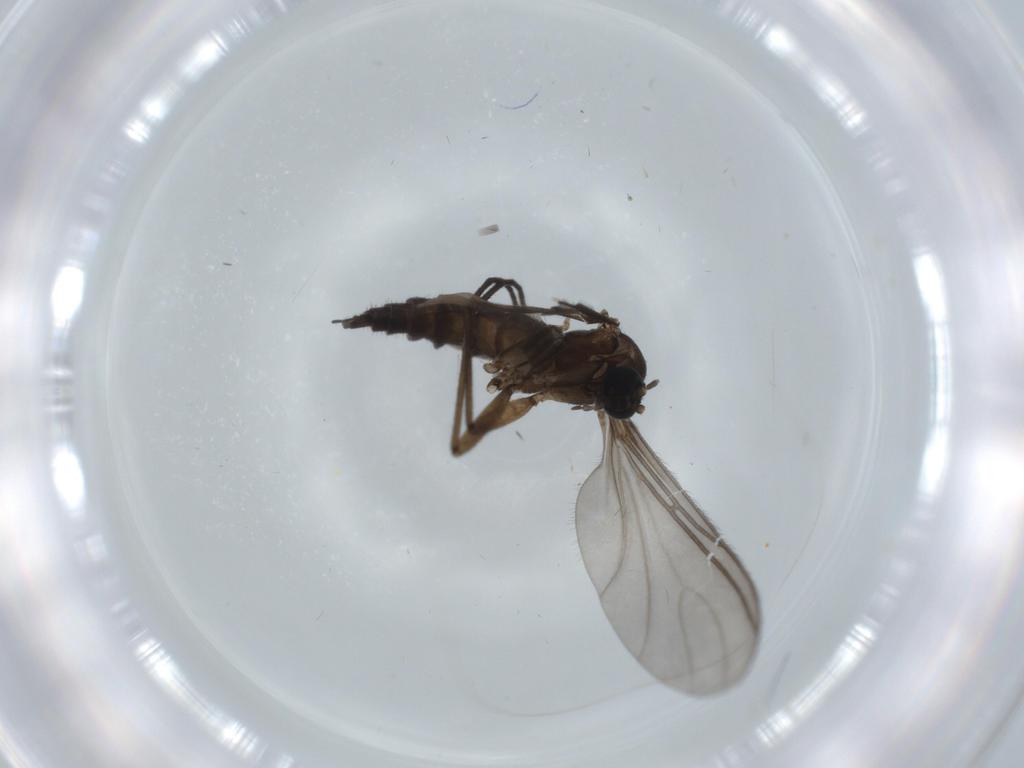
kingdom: Animalia
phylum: Arthropoda
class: Insecta
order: Diptera
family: Sciaridae
